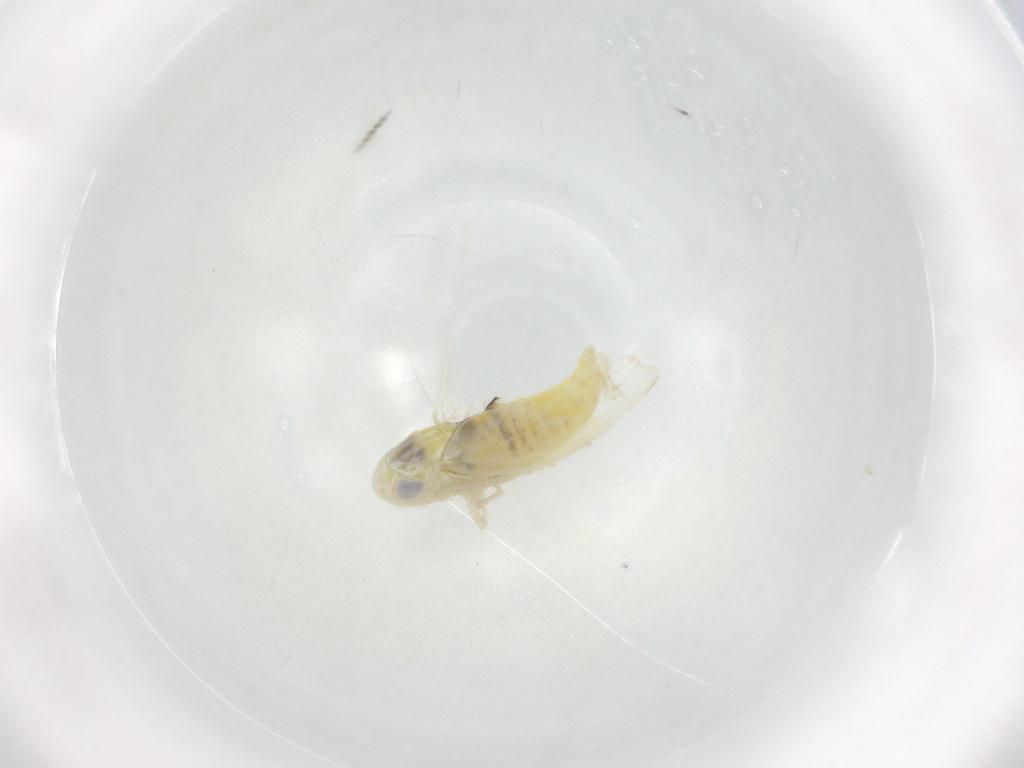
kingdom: Animalia
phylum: Arthropoda
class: Insecta
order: Hemiptera
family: Cicadellidae
